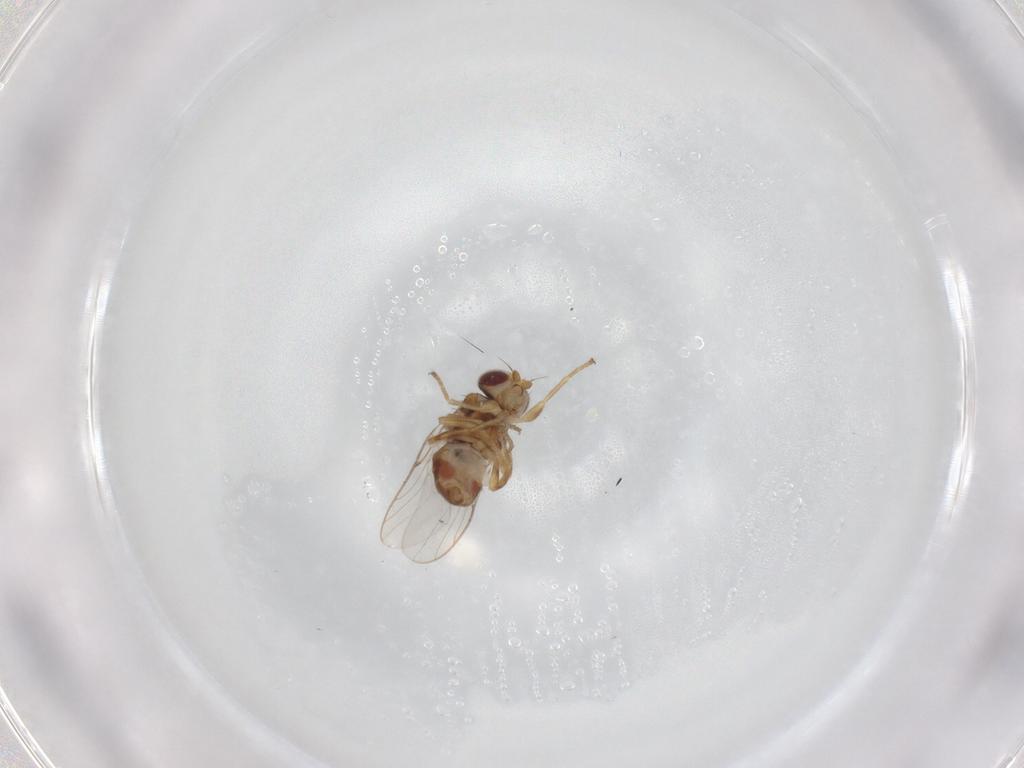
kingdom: Animalia
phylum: Arthropoda
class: Insecta
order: Diptera
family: Chloropidae
